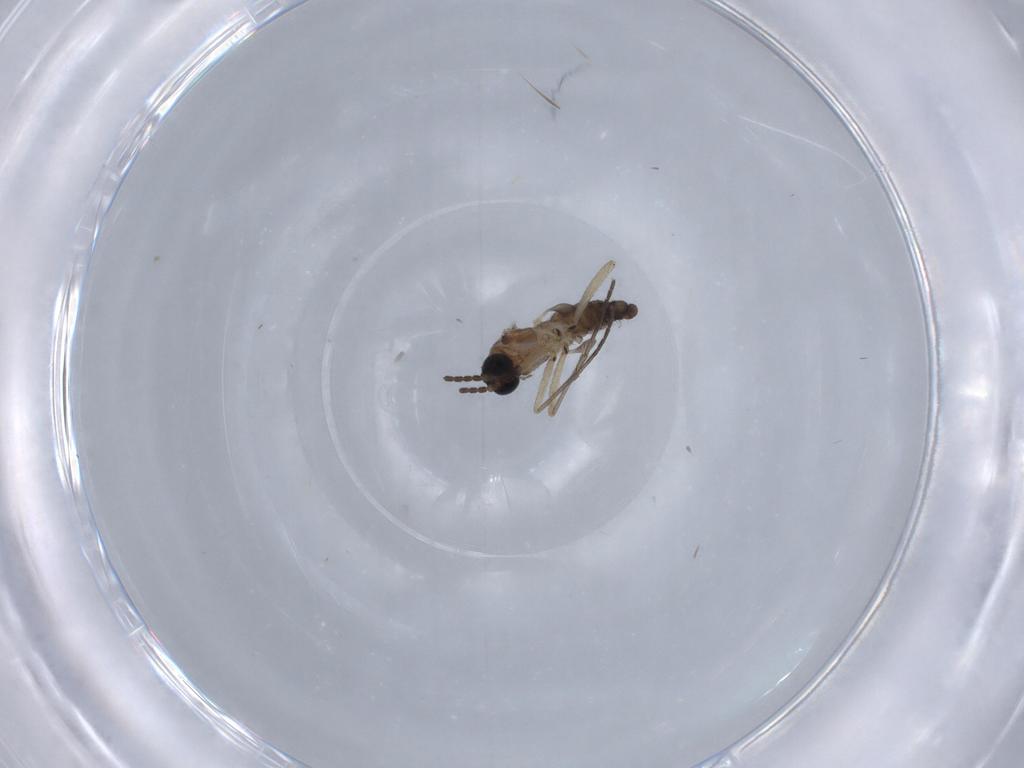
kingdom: Animalia
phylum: Arthropoda
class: Insecta
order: Diptera
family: Sciaridae
